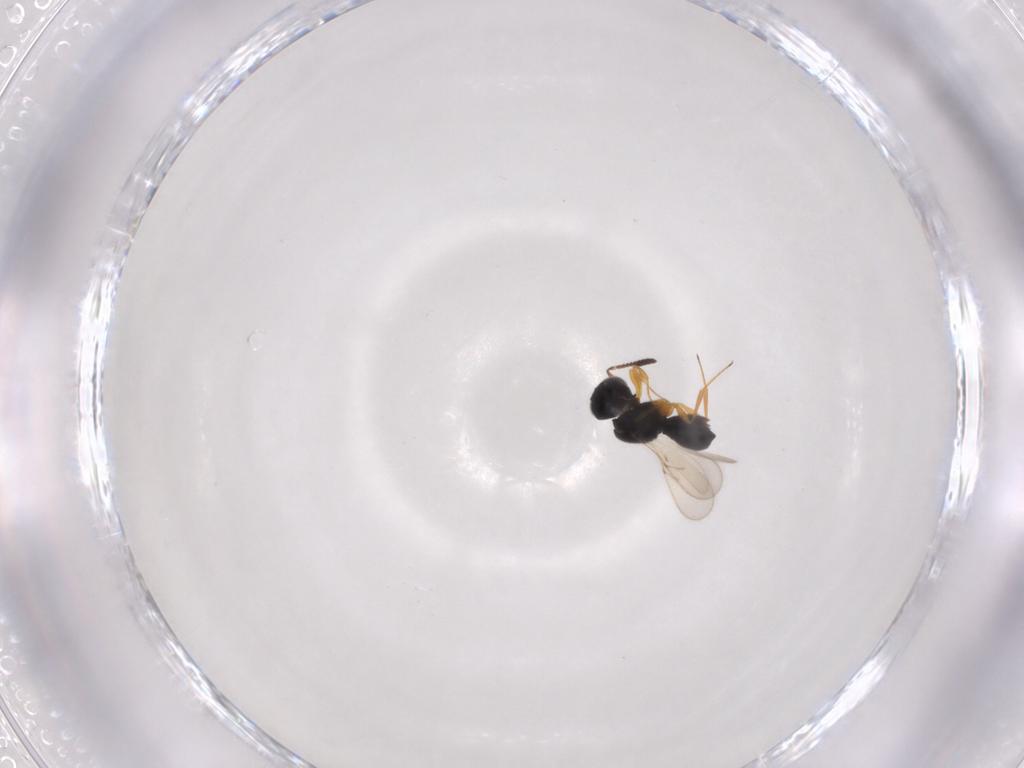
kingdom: Animalia
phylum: Arthropoda
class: Insecta
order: Hymenoptera
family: Scelionidae
